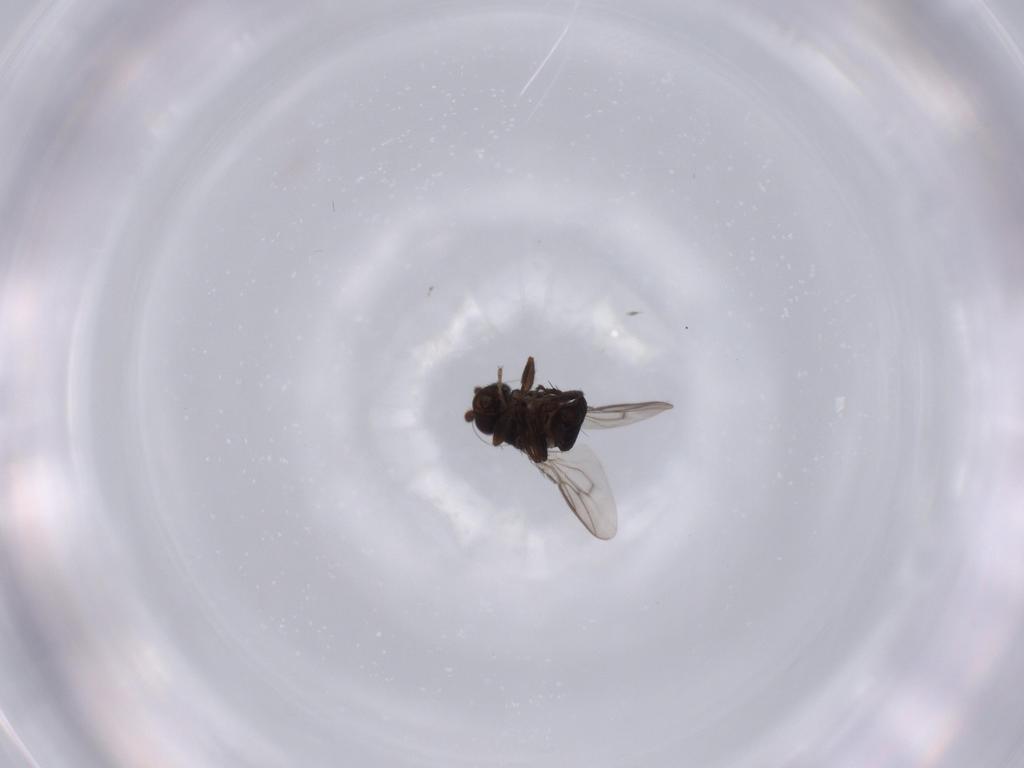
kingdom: Animalia
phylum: Arthropoda
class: Insecta
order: Diptera
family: Sphaeroceridae
